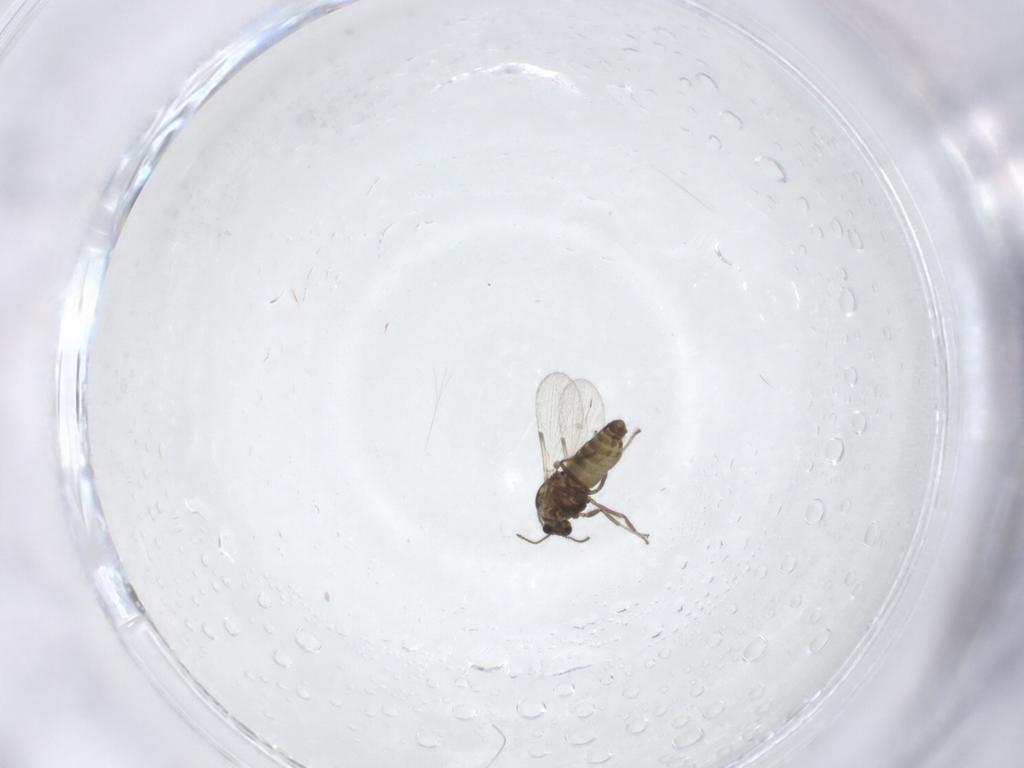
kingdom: Animalia
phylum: Arthropoda
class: Insecta
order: Diptera
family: Ceratopogonidae
